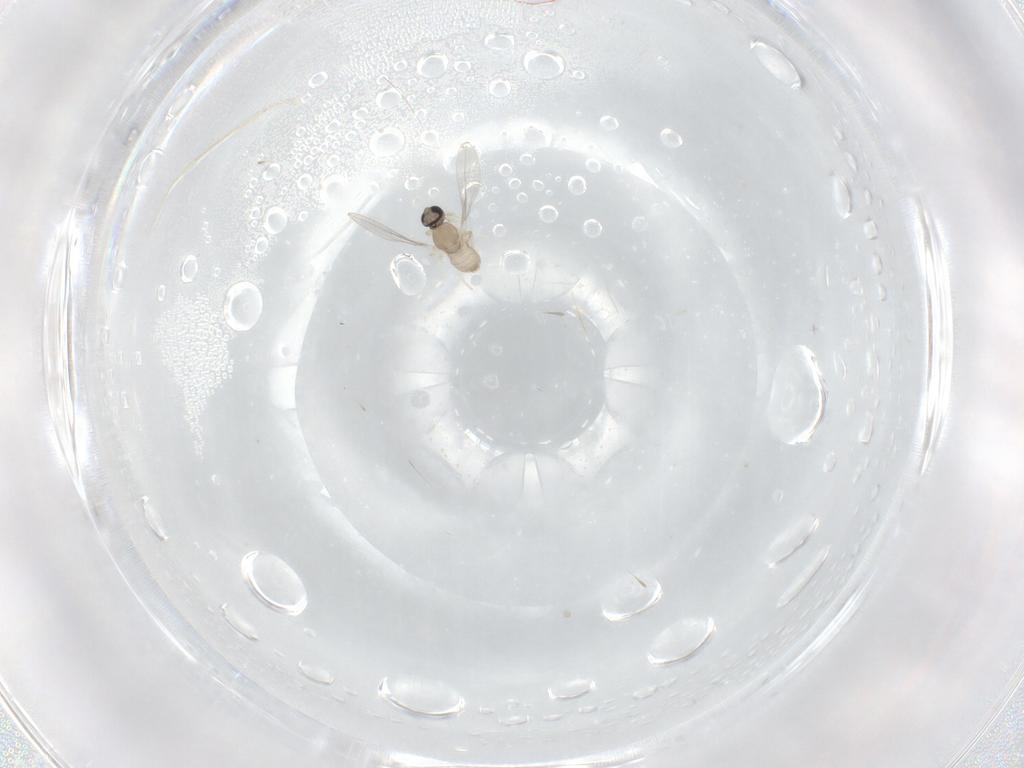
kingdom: Animalia
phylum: Arthropoda
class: Insecta
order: Diptera
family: Cecidomyiidae
